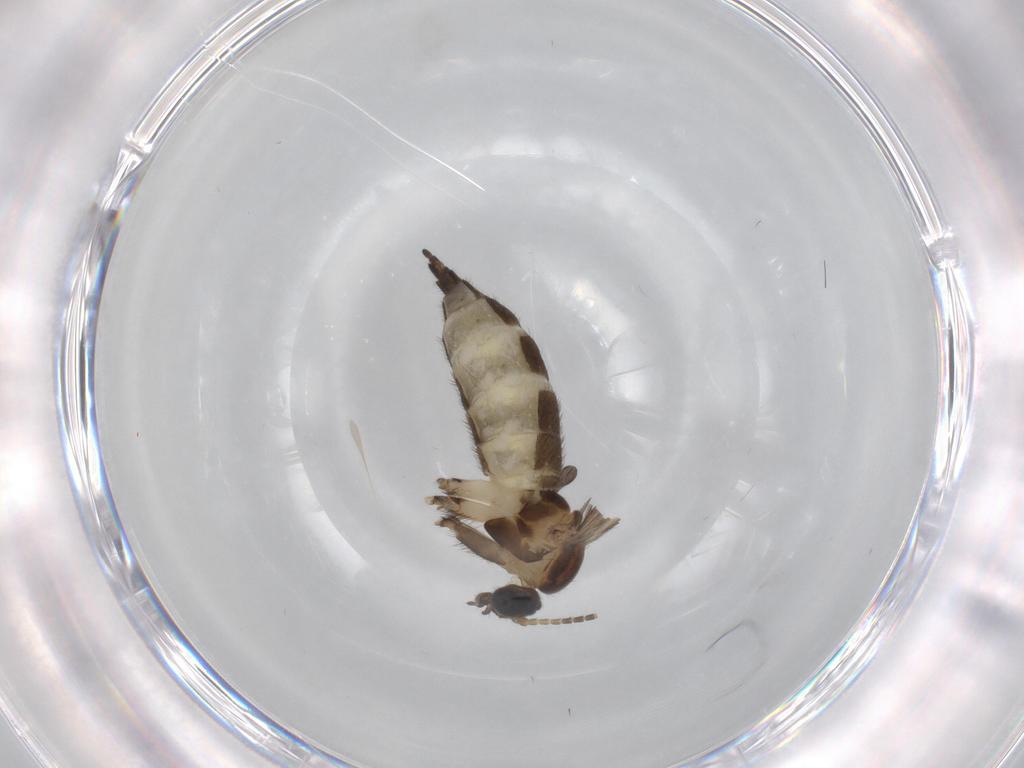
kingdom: Animalia
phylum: Arthropoda
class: Insecta
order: Diptera
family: Sciaridae
